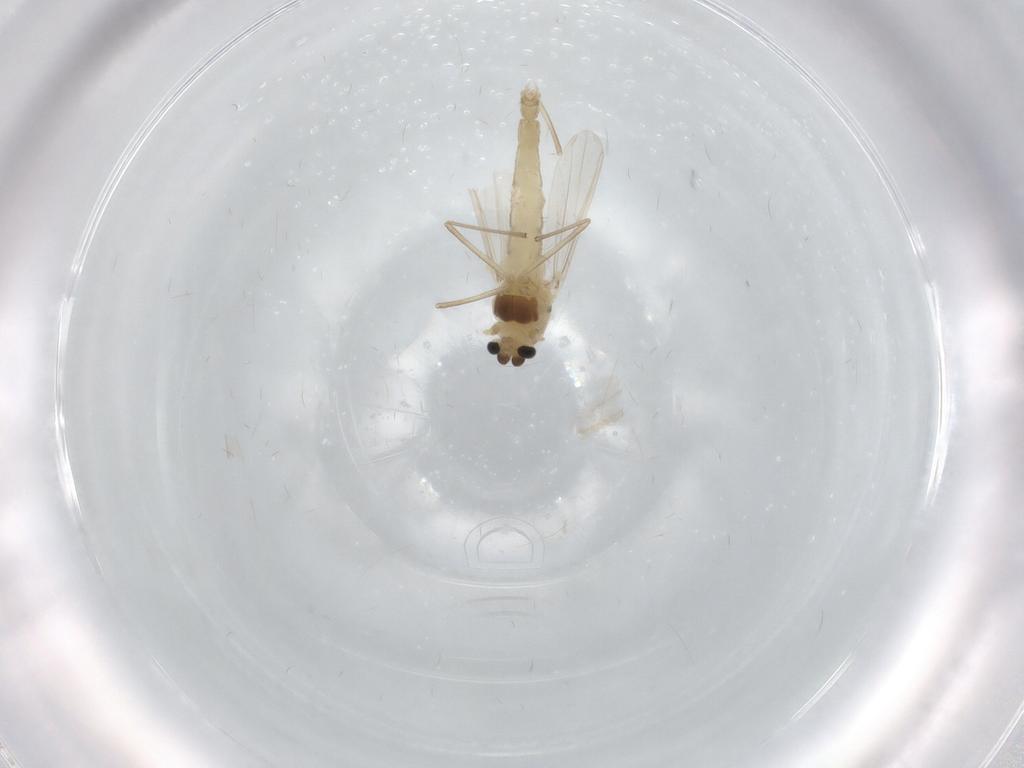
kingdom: Animalia
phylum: Arthropoda
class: Insecta
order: Diptera
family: Chironomidae
